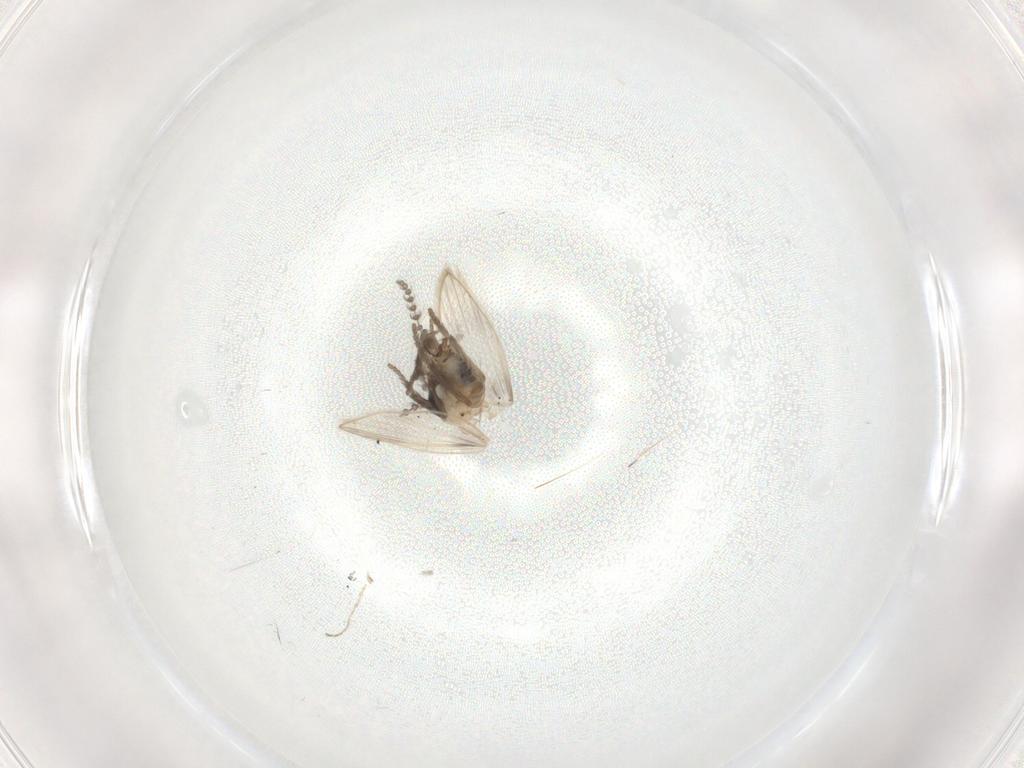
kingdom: Animalia
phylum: Arthropoda
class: Insecta
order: Diptera
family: Psychodidae
